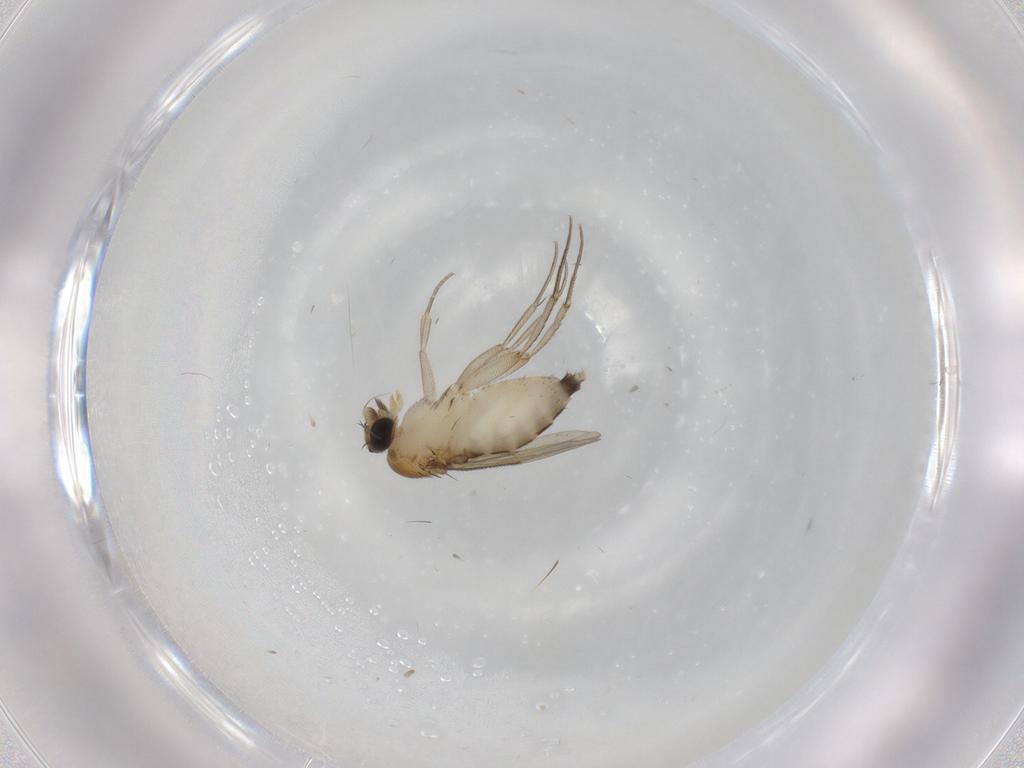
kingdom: Animalia
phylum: Arthropoda
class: Insecta
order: Diptera
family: Phoridae
